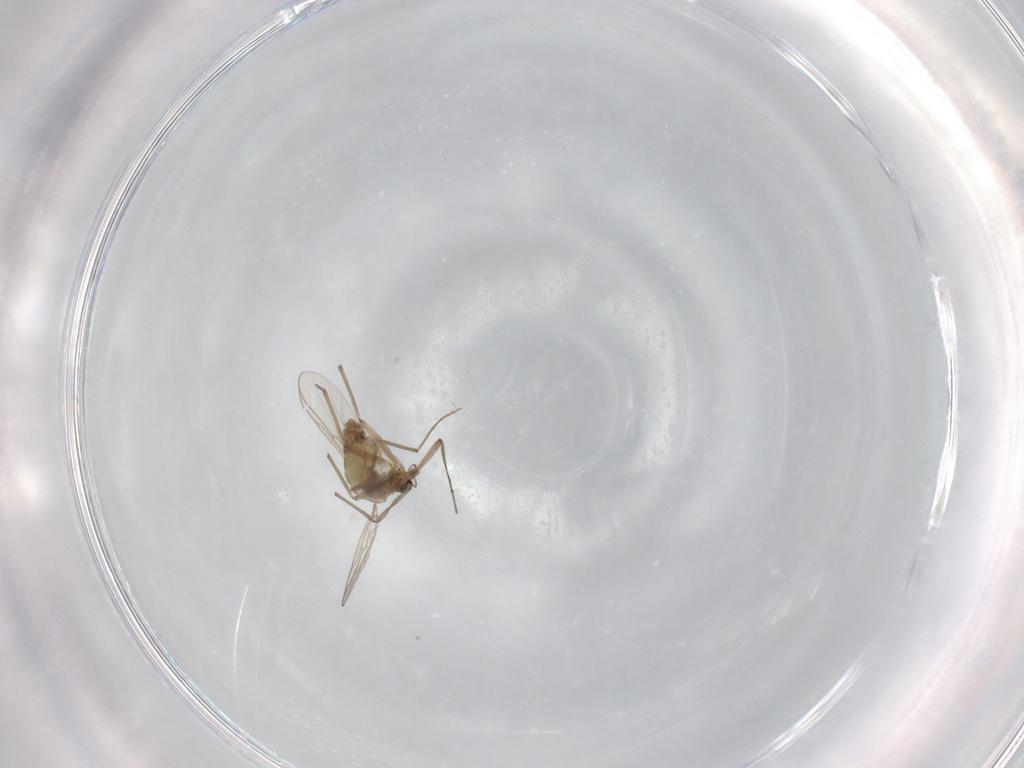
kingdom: Animalia
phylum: Arthropoda
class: Insecta
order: Diptera
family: Chironomidae
